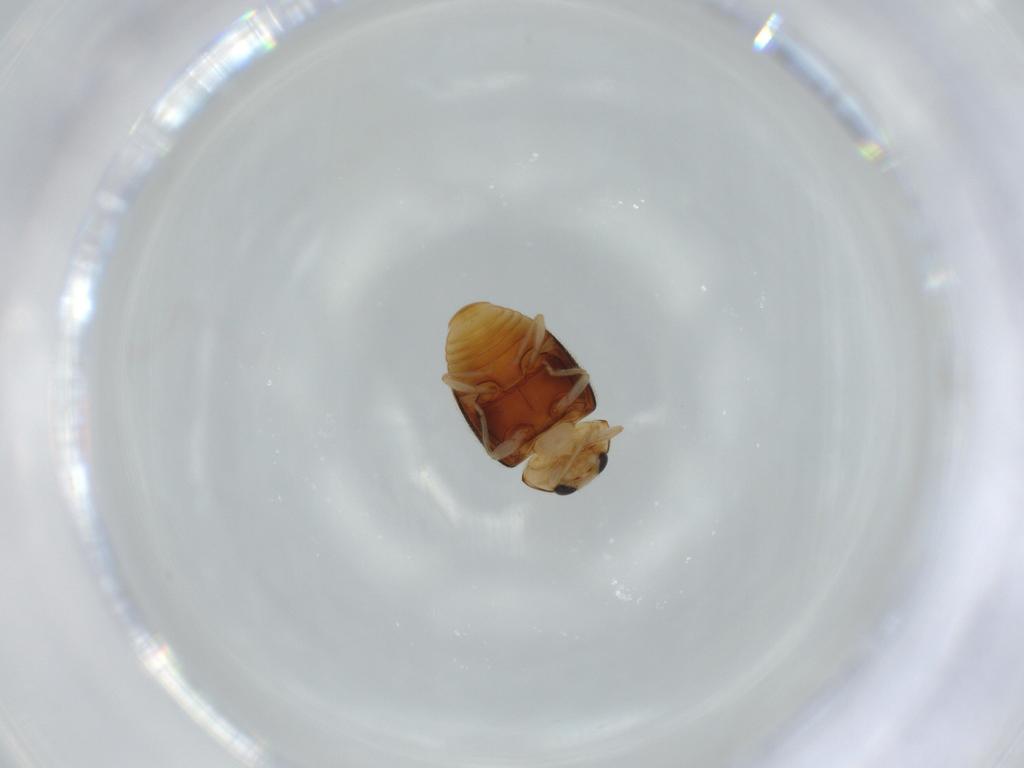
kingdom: Animalia
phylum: Arthropoda
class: Insecta
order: Coleoptera
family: Coccinellidae
